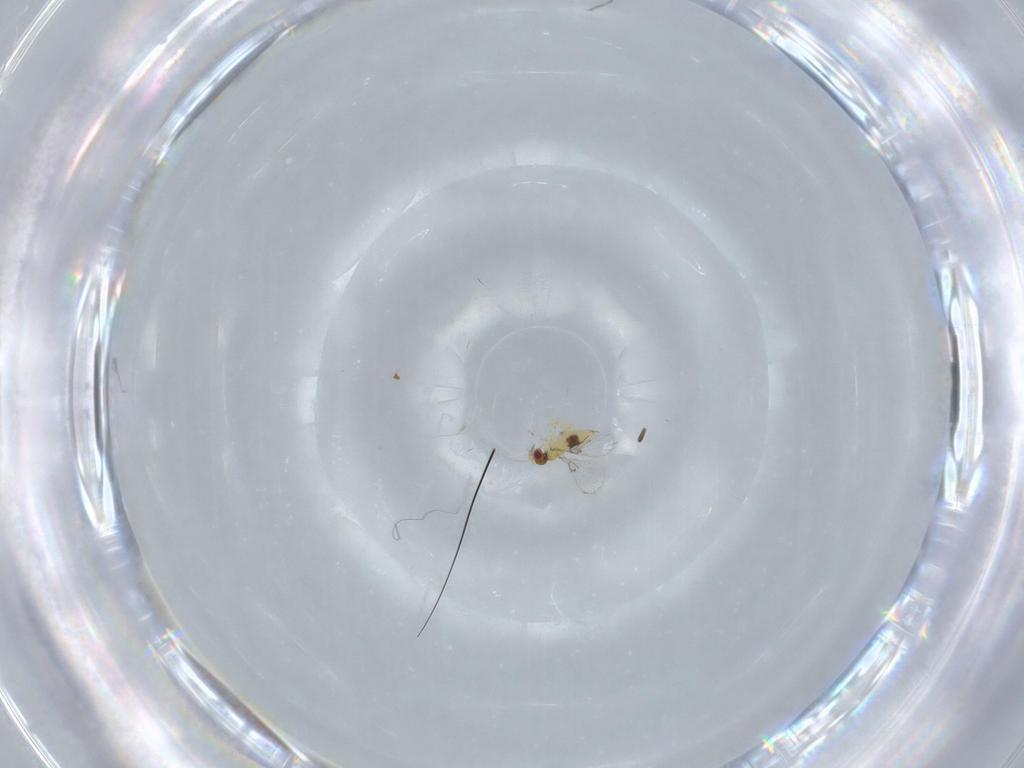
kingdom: Animalia
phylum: Arthropoda
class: Insecta
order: Hymenoptera
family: Trichogrammatidae
